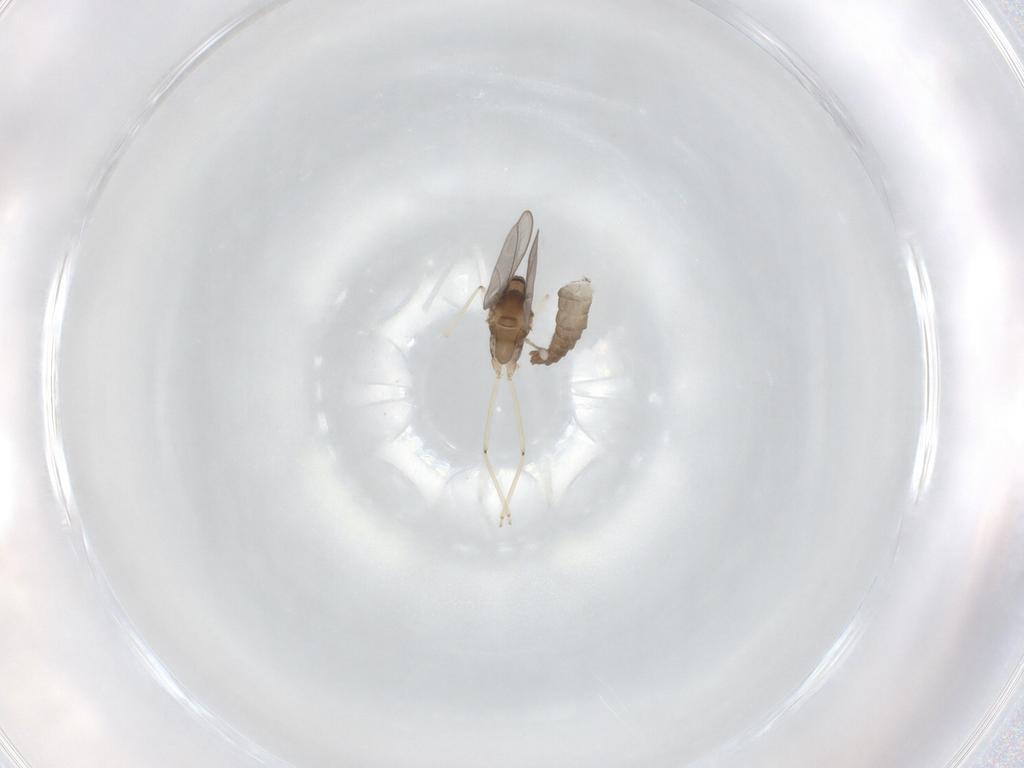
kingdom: Animalia
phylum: Arthropoda
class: Insecta
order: Diptera
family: Cecidomyiidae
